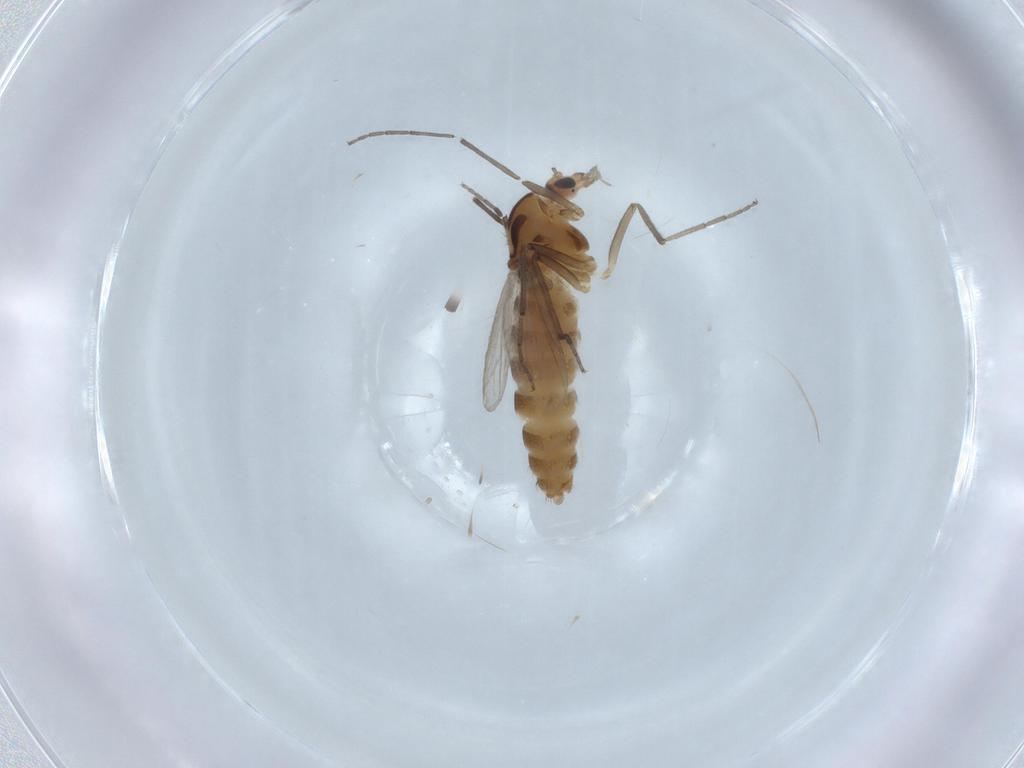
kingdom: Animalia
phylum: Arthropoda
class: Insecta
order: Diptera
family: Chironomidae
